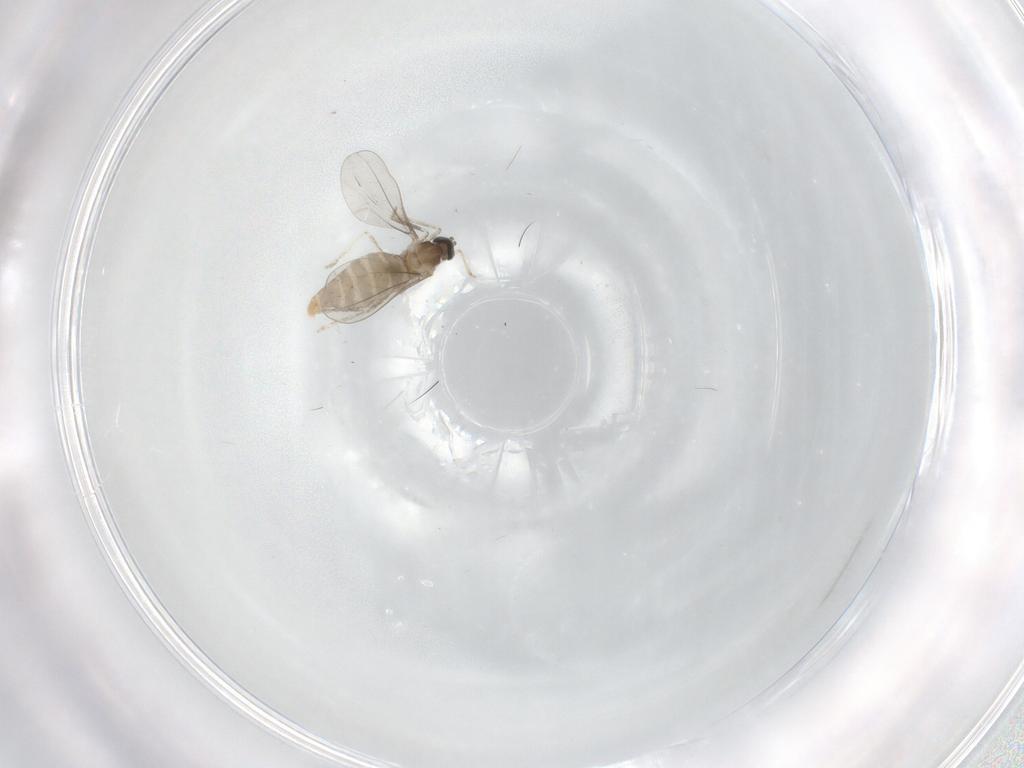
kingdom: Animalia
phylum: Arthropoda
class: Insecta
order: Diptera
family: Cecidomyiidae
